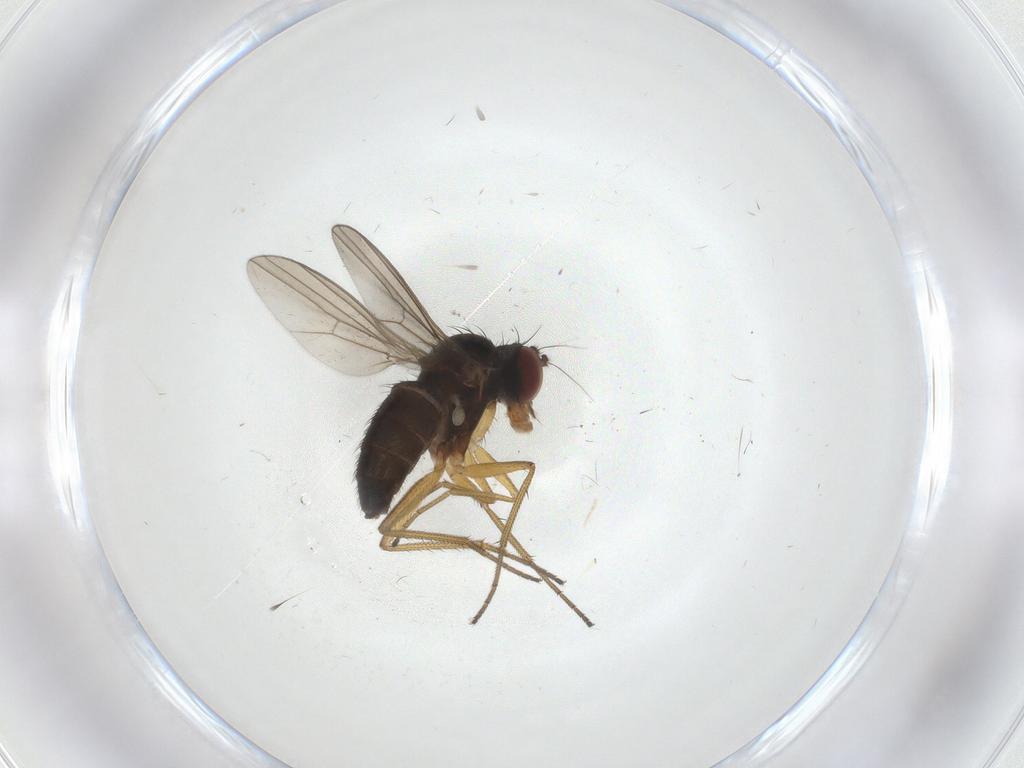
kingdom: Animalia
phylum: Arthropoda
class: Insecta
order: Diptera
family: Dolichopodidae
